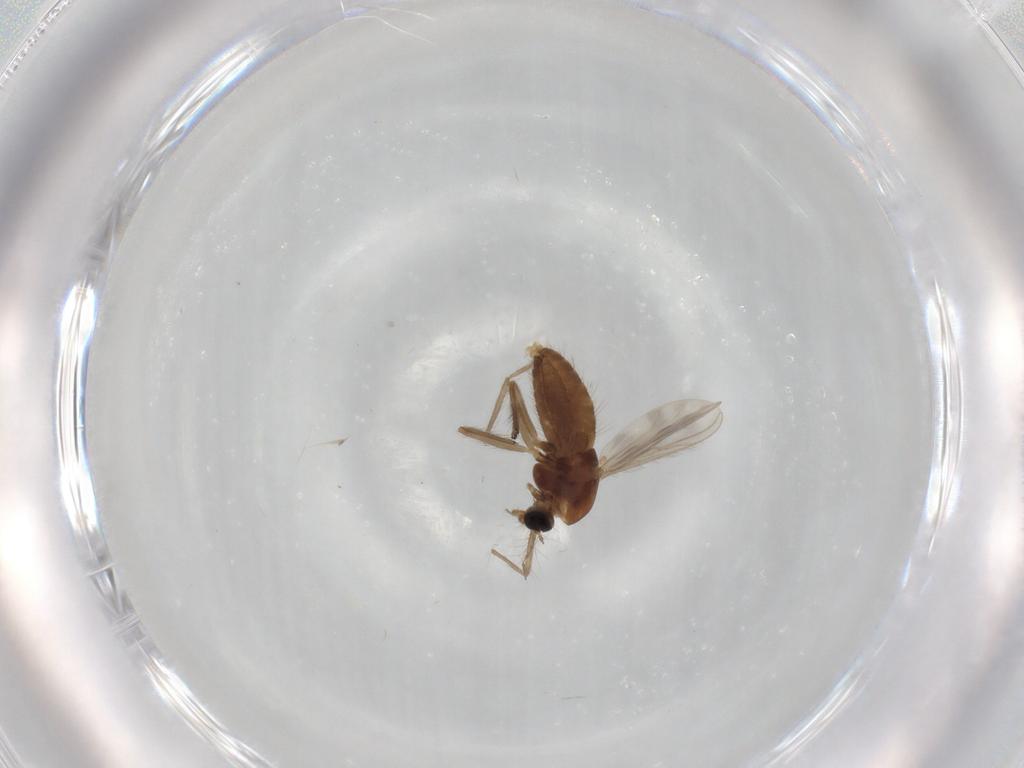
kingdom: Animalia
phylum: Arthropoda
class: Insecta
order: Diptera
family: Chironomidae
